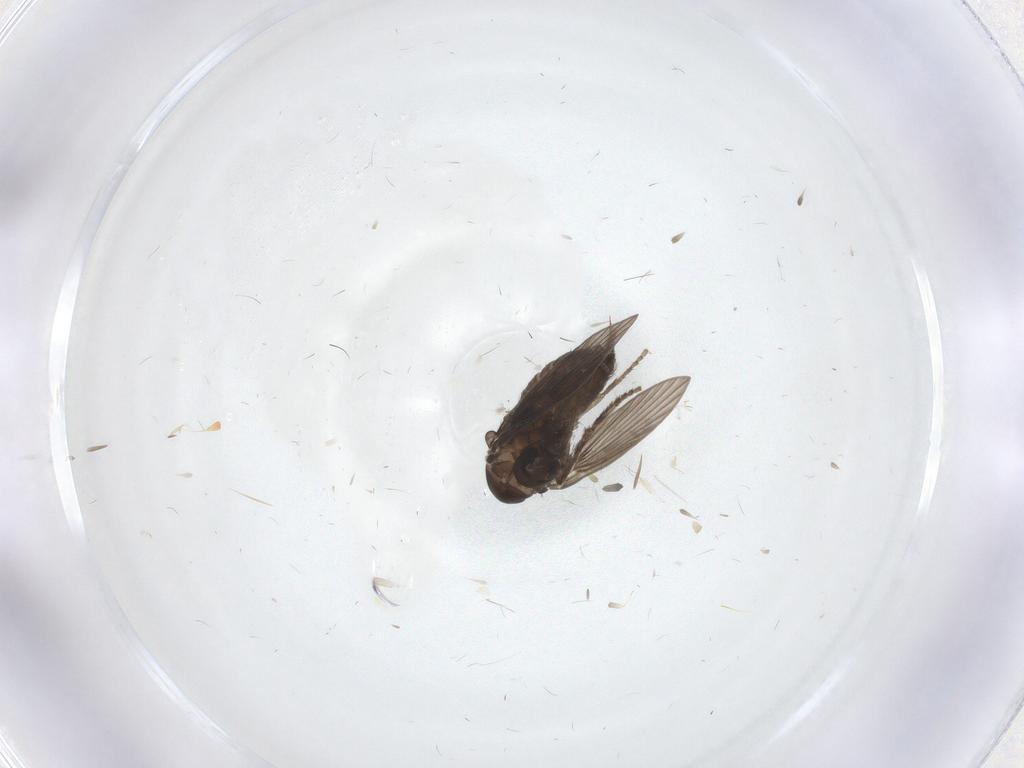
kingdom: Animalia
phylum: Arthropoda
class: Insecta
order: Diptera
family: Psychodidae
